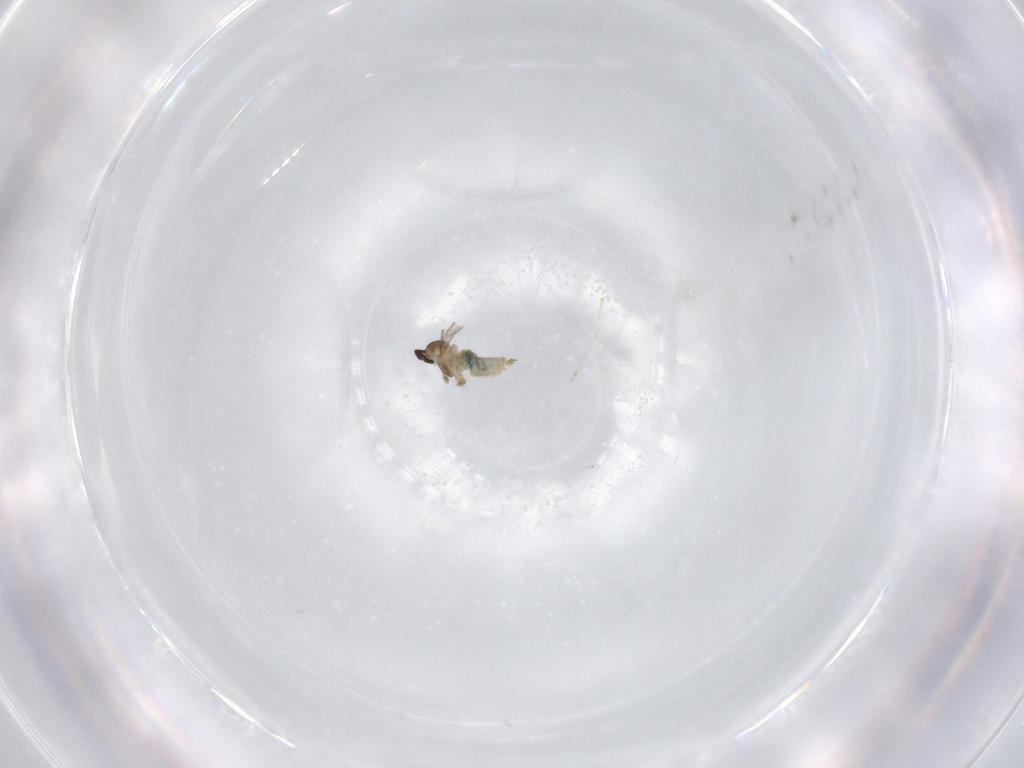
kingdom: Animalia
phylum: Arthropoda
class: Insecta
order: Diptera
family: Cecidomyiidae
